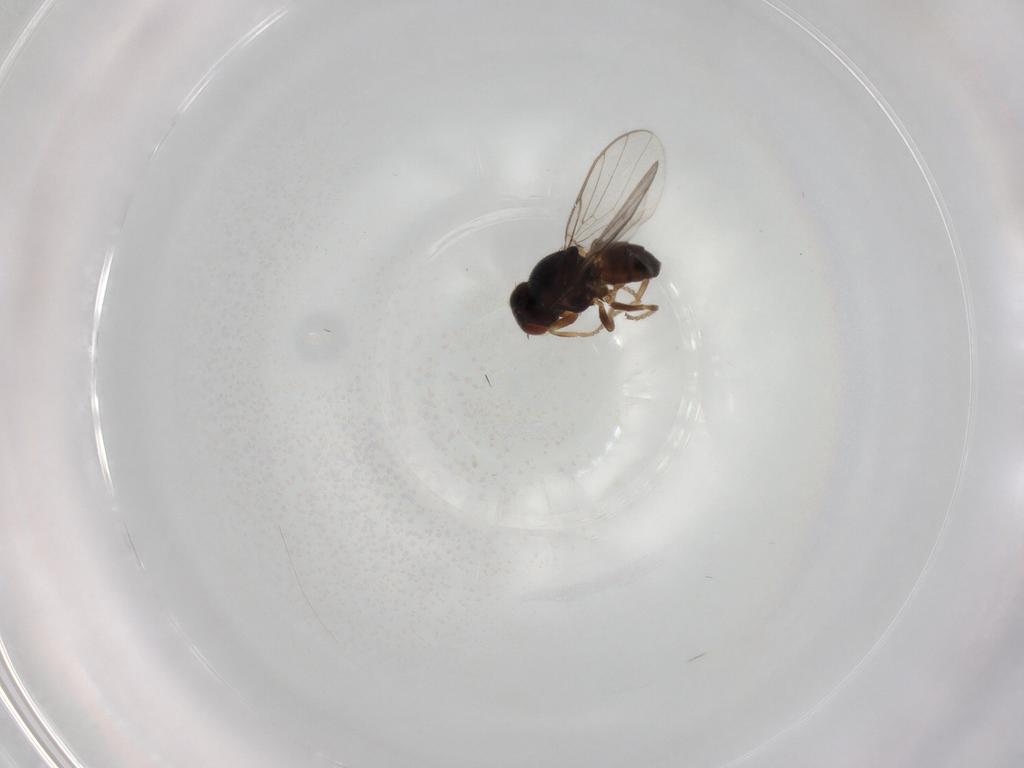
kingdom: Animalia
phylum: Arthropoda
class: Insecta
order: Diptera
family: Chloropidae
